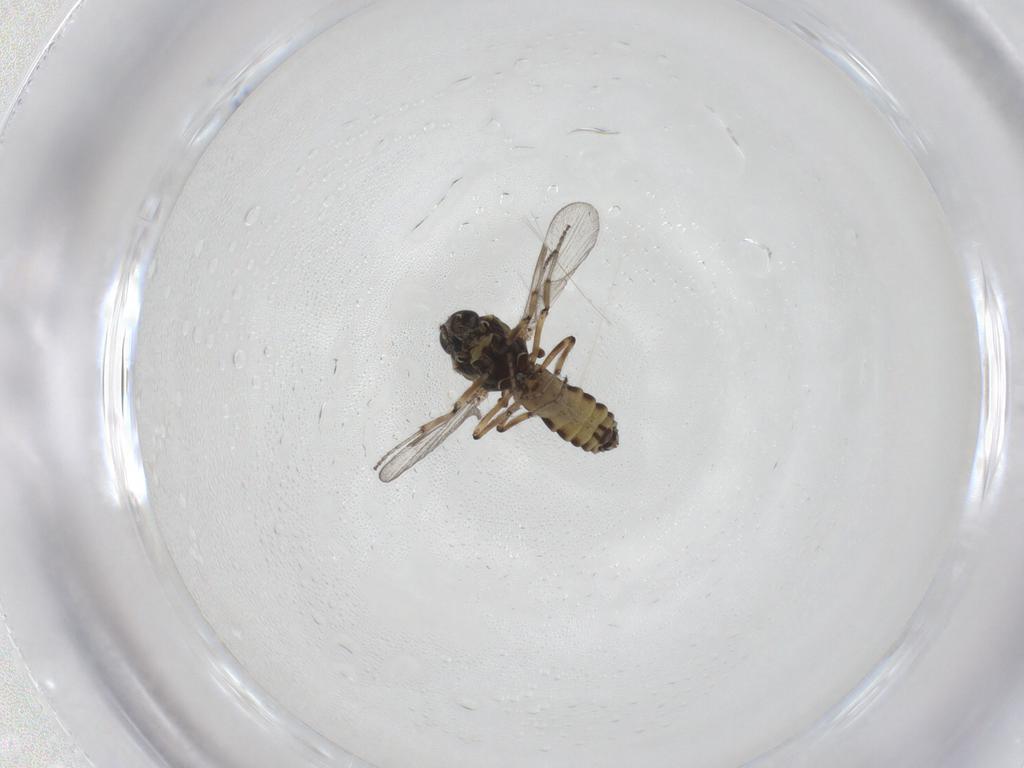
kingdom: Animalia
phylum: Arthropoda
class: Insecta
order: Diptera
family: Ceratopogonidae
